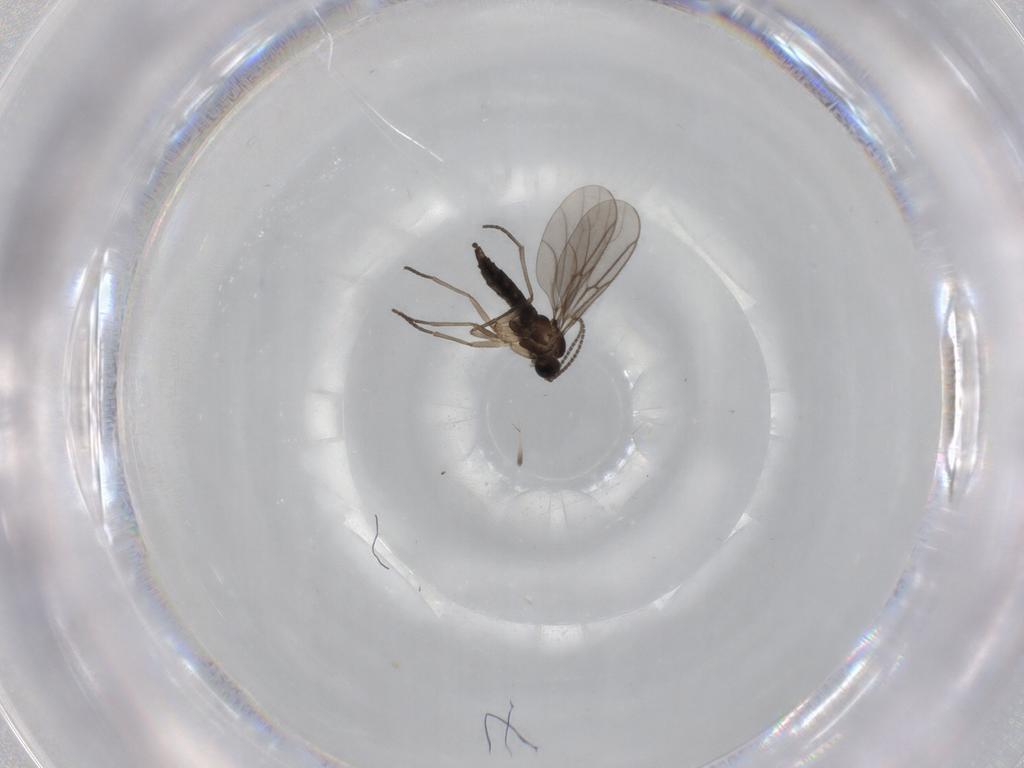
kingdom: Animalia
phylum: Arthropoda
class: Insecta
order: Diptera
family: Sciaridae
